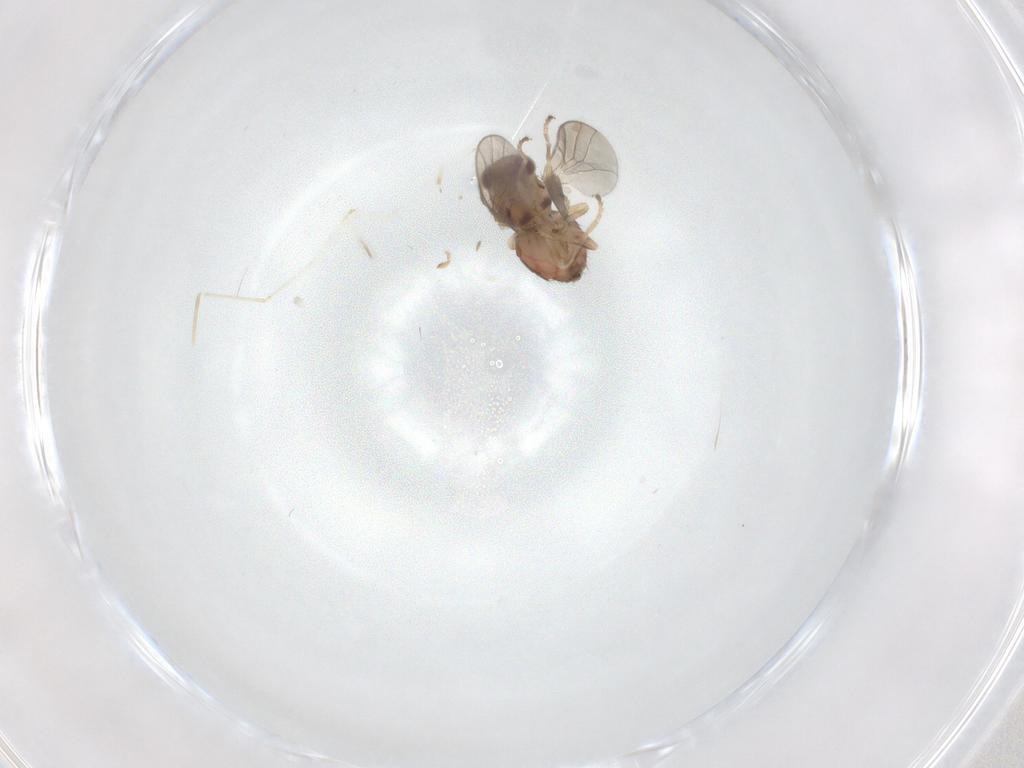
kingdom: Animalia
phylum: Arthropoda
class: Insecta
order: Diptera
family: Chloropidae
